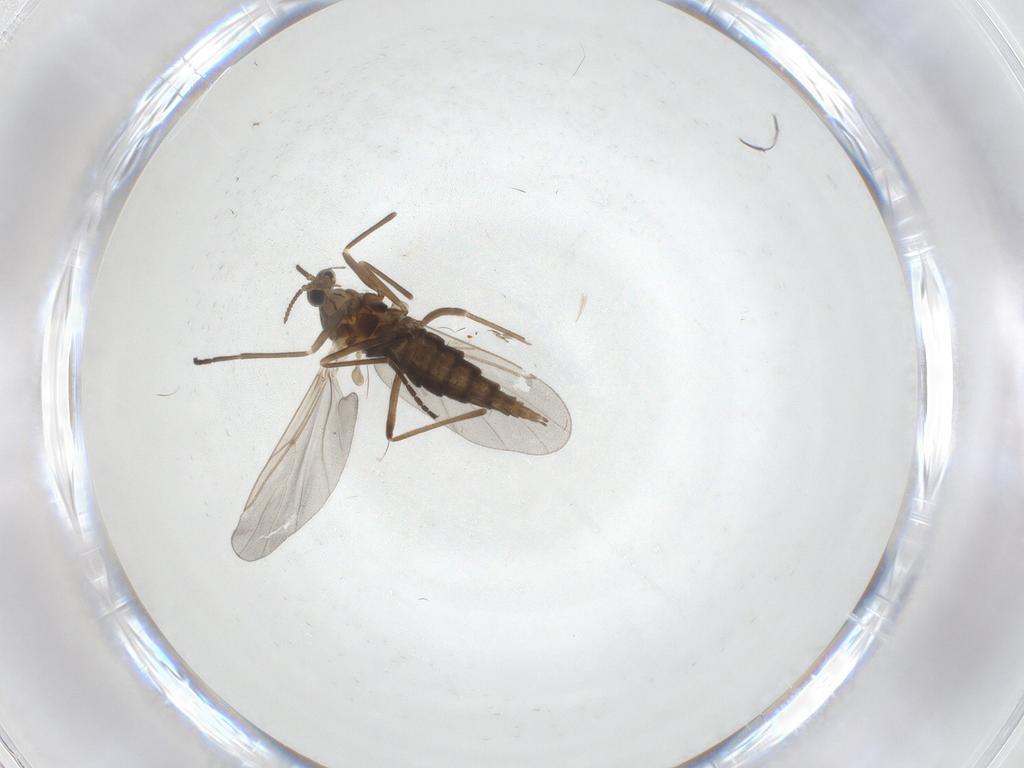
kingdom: Animalia
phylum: Arthropoda
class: Insecta
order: Diptera
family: Cecidomyiidae
